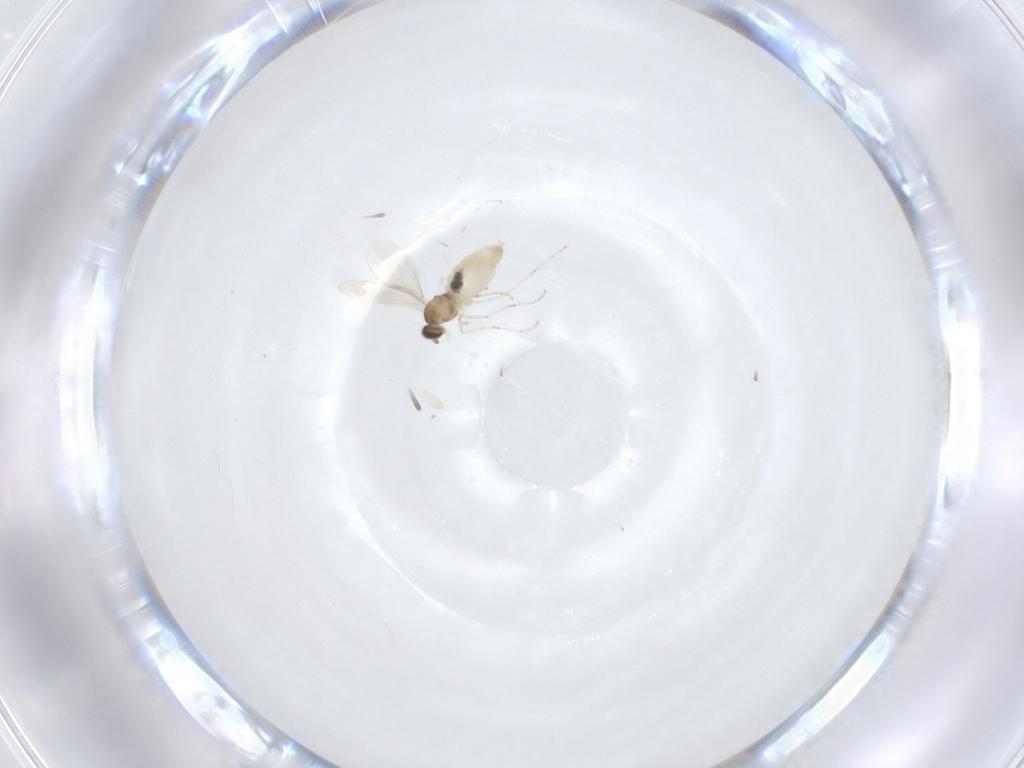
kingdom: Animalia
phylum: Arthropoda
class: Insecta
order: Diptera
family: Cecidomyiidae
